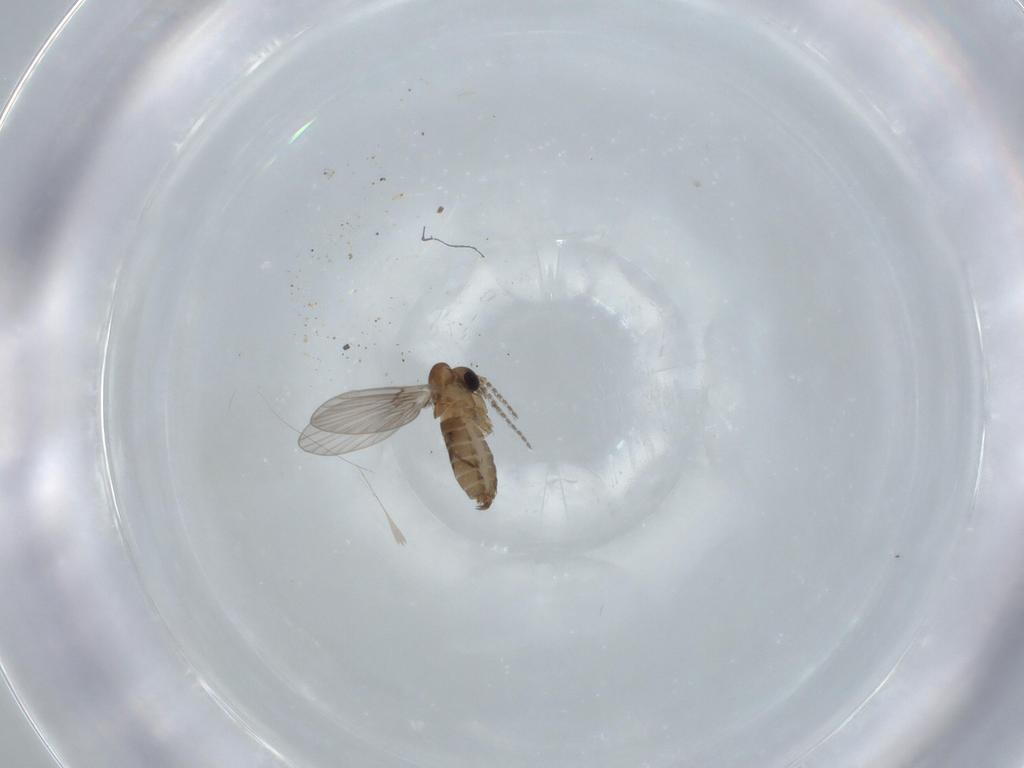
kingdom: Animalia
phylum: Arthropoda
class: Insecta
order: Diptera
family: Psychodidae
